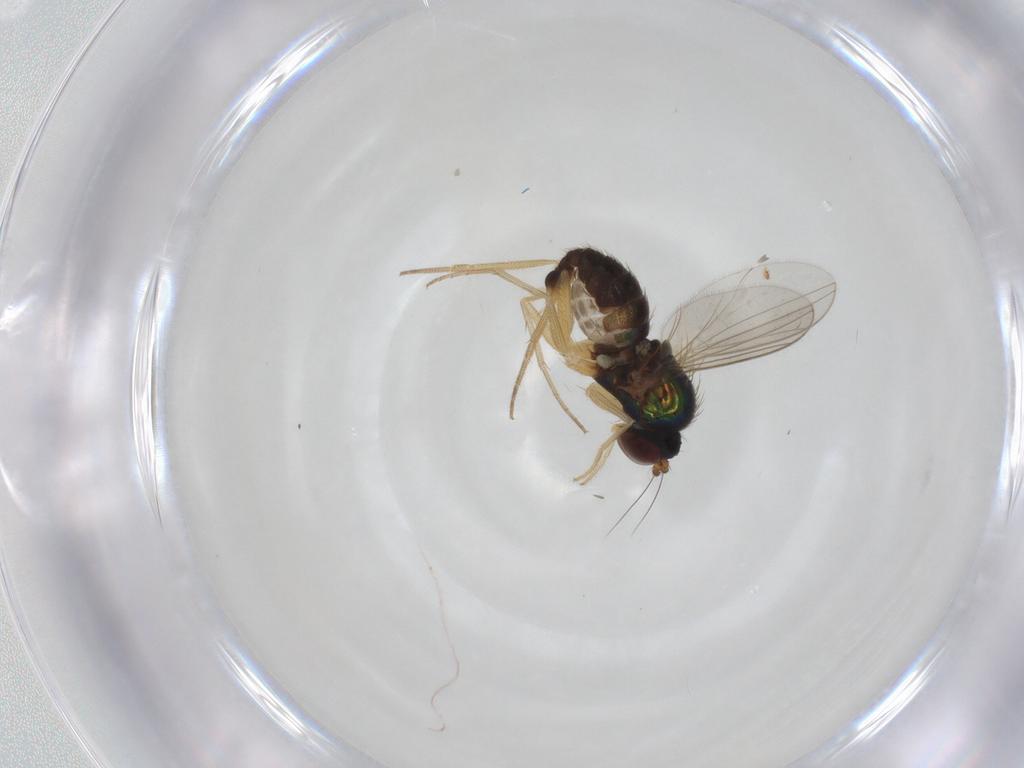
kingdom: Animalia
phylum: Arthropoda
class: Insecta
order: Diptera
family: Dolichopodidae
